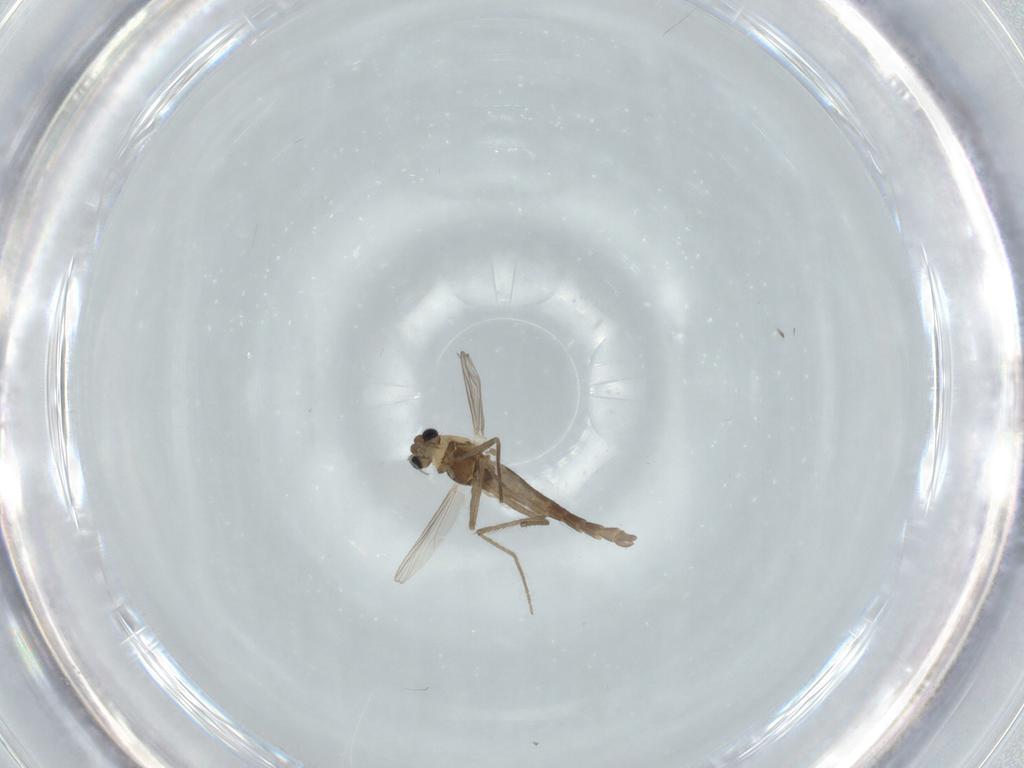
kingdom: Animalia
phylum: Arthropoda
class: Insecta
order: Diptera
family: Chironomidae
